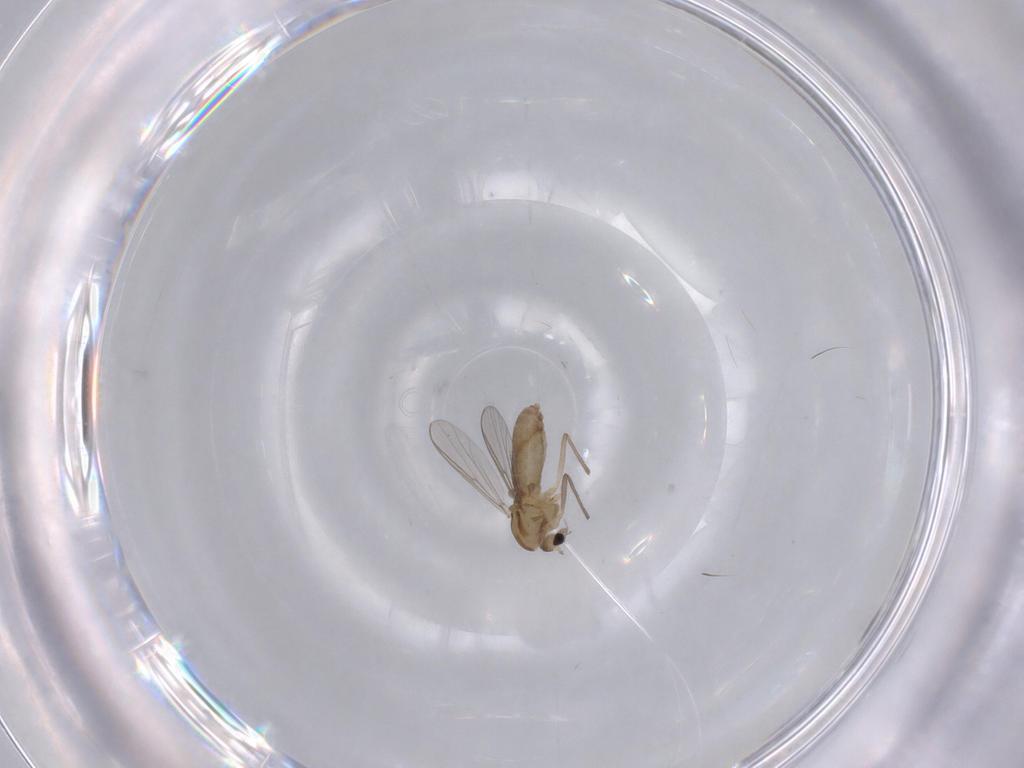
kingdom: Animalia
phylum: Arthropoda
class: Insecta
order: Diptera
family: Chironomidae
